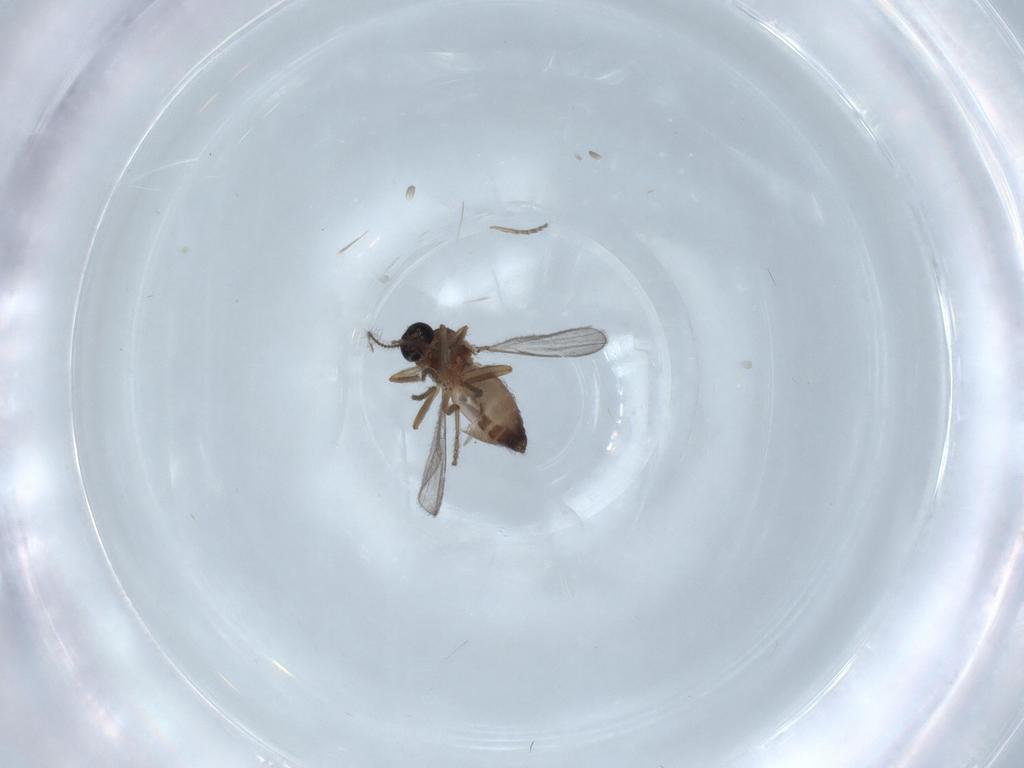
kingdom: Animalia
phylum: Arthropoda
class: Insecta
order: Diptera
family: Ceratopogonidae
